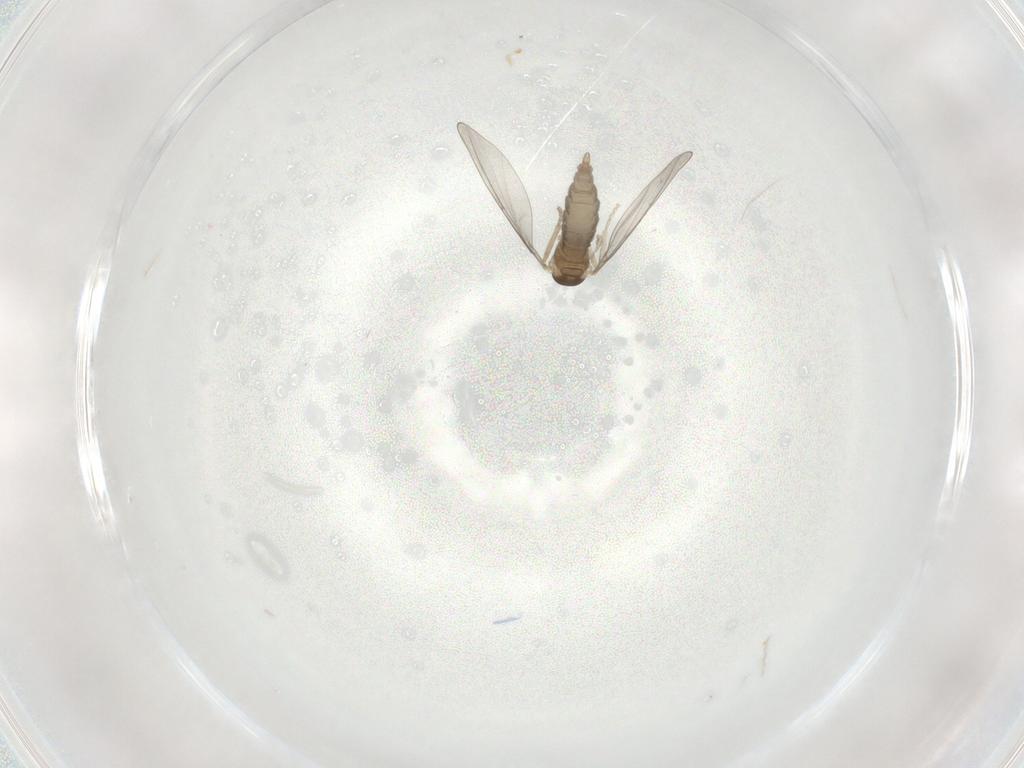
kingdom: Animalia
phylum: Arthropoda
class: Insecta
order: Diptera
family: Cecidomyiidae
